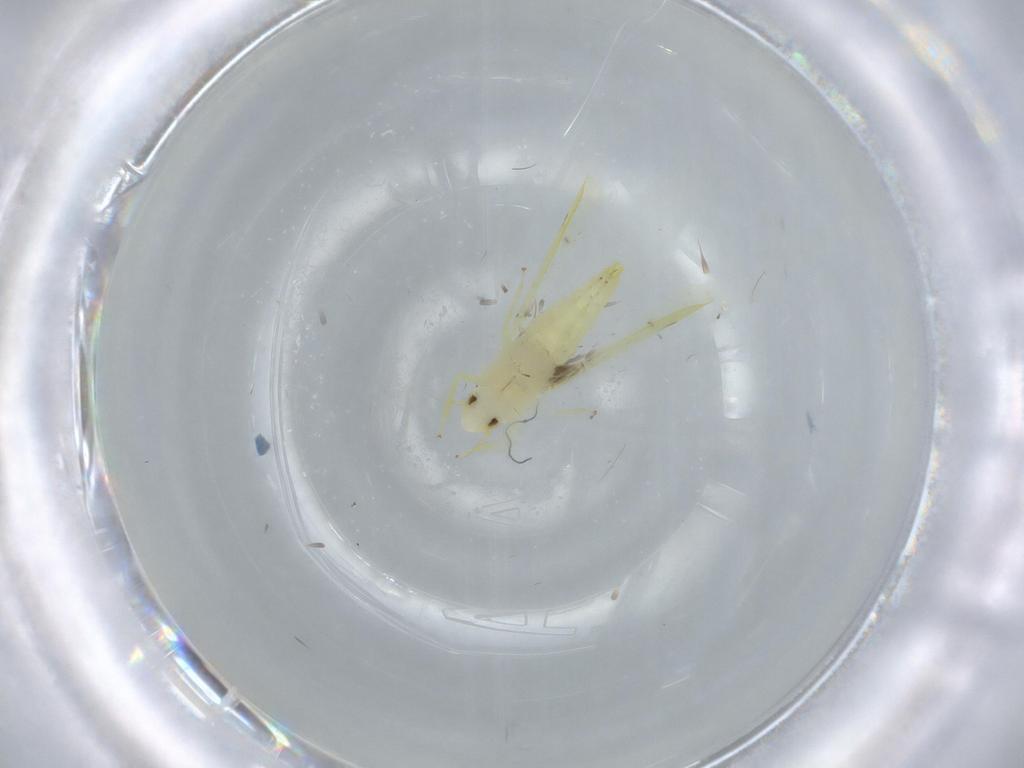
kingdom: Animalia
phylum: Arthropoda
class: Insecta
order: Hemiptera
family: Cicadellidae
